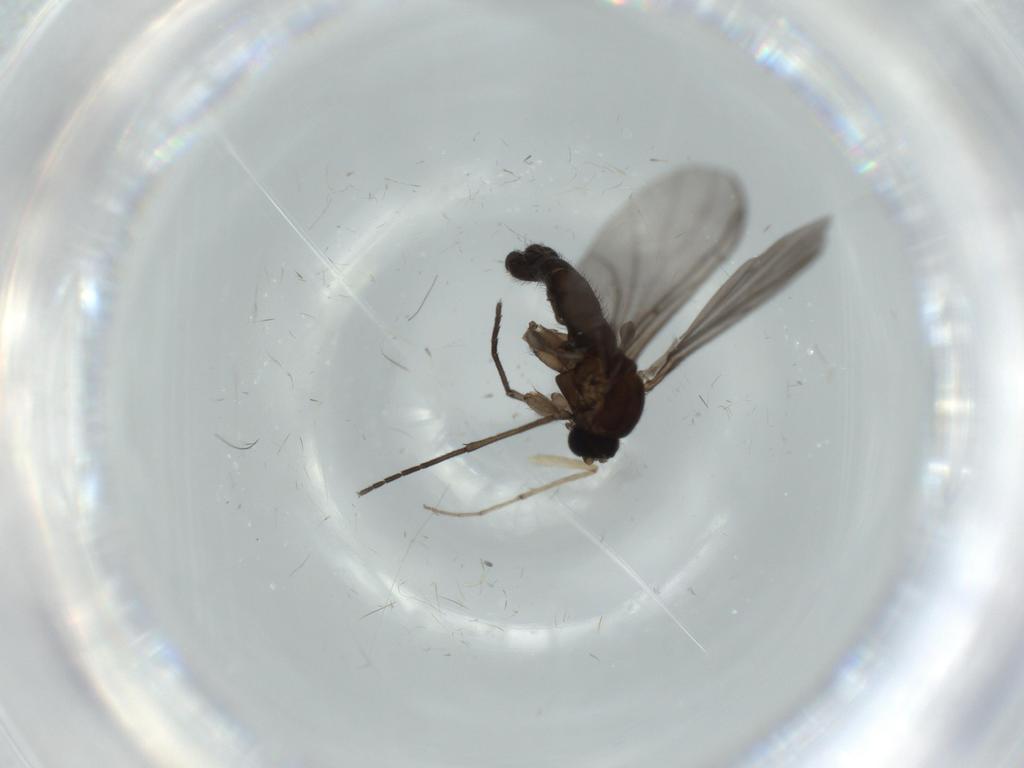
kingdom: Animalia
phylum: Arthropoda
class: Insecta
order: Diptera
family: Sciaridae
